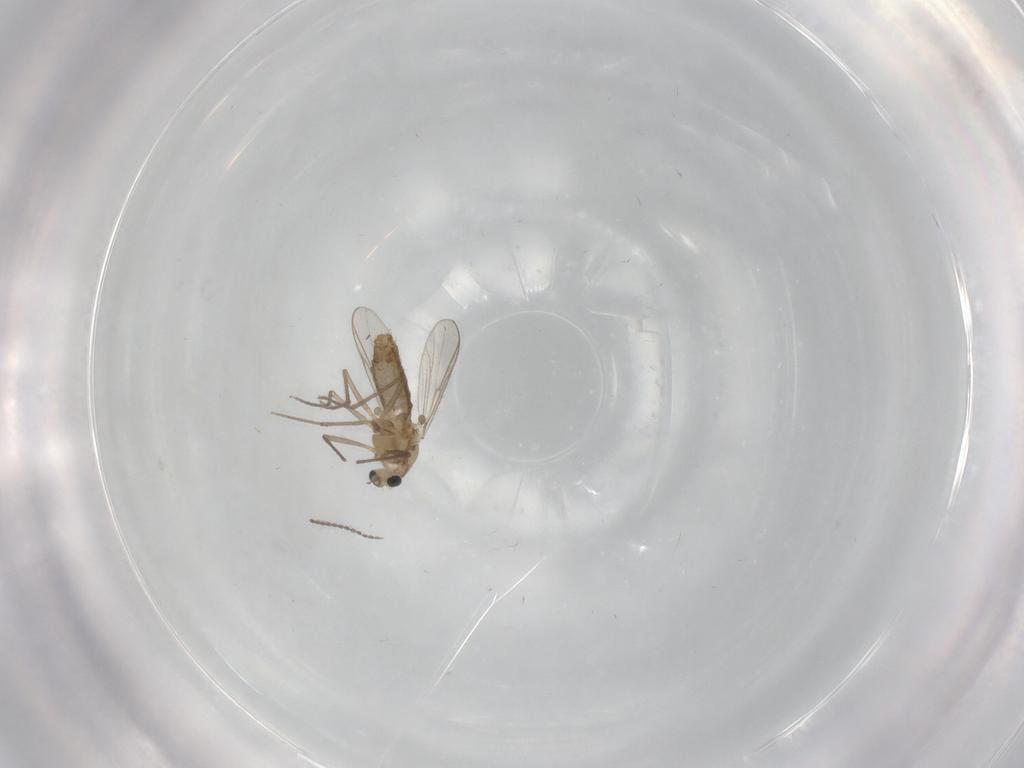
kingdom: Animalia
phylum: Arthropoda
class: Insecta
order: Diptera
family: Chironomidae
